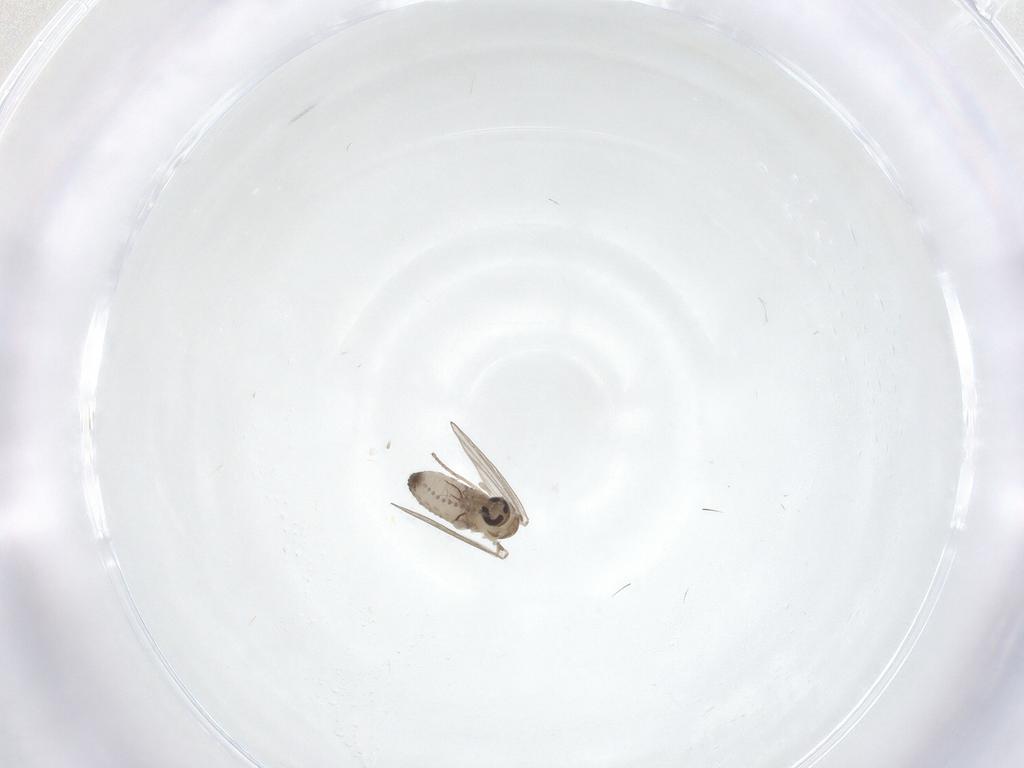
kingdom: Animalia
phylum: Arthropoda
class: Insecta
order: Diptera
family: Psychodidae
